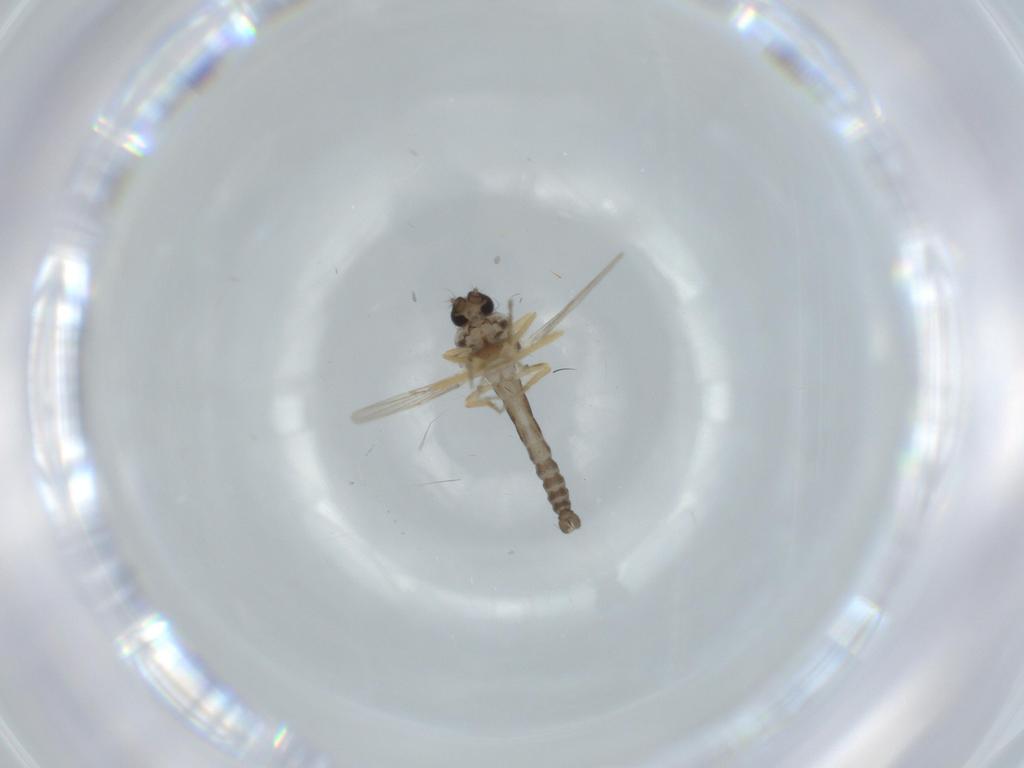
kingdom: Animalia
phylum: Arthropoda
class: Insecta
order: Diptera
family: Ceratopogonidae
